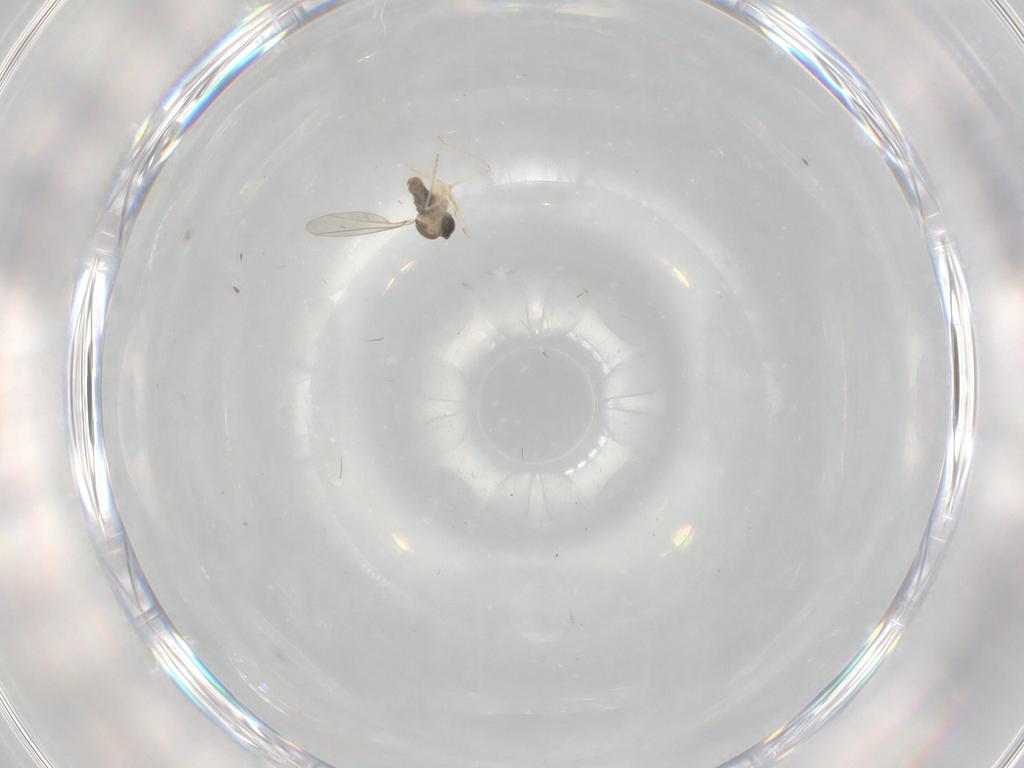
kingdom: Animalia
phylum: Arthropoda
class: Insecta
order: Diptera
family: Cecidomyiidae
